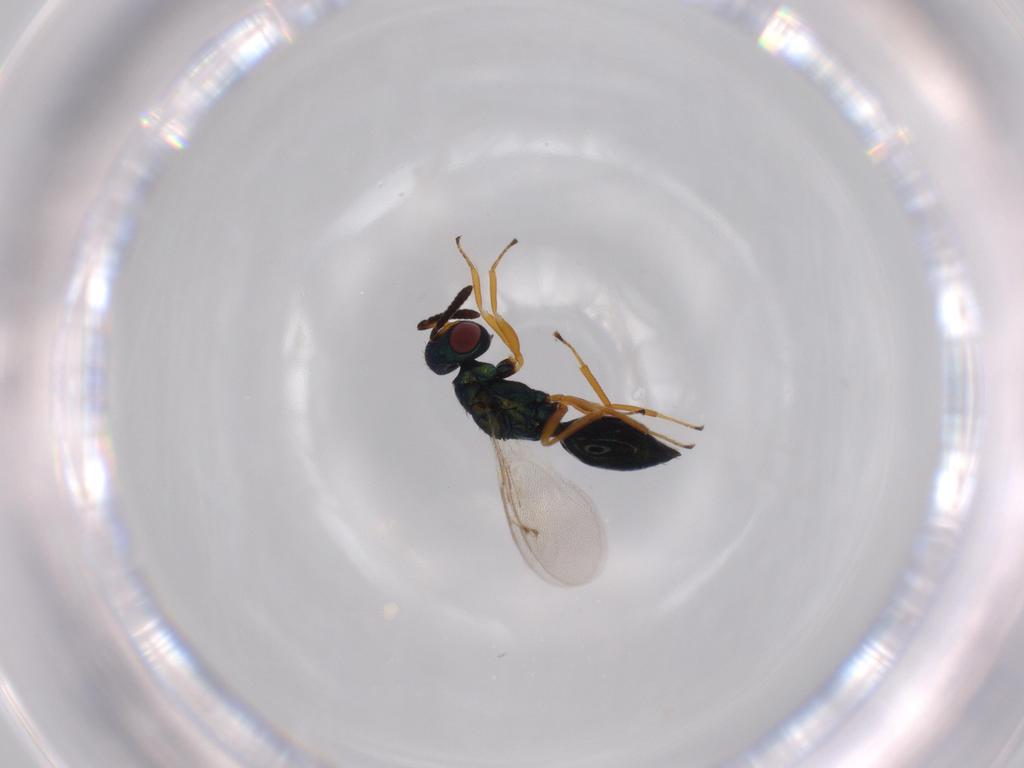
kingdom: Animalia
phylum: Arthropoda
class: Insecta
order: Hymenoptera
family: Pteromalidae
